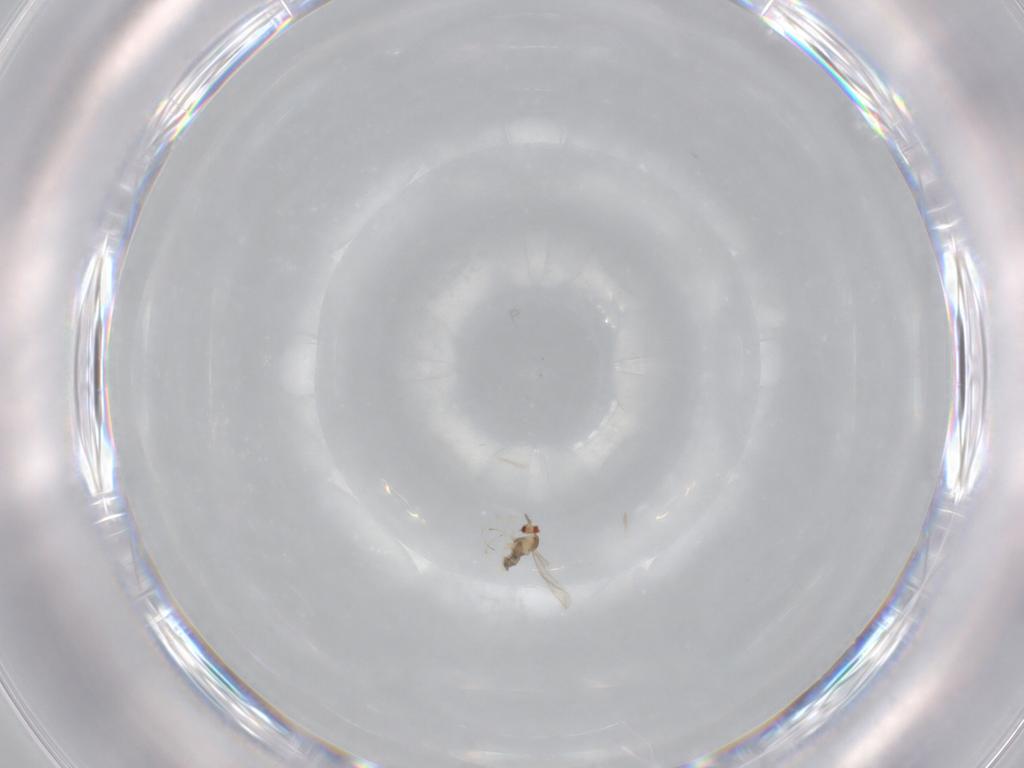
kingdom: Animalia
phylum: Arthropoda
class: Insecta
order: Diptera
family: Cecidomyiidae
